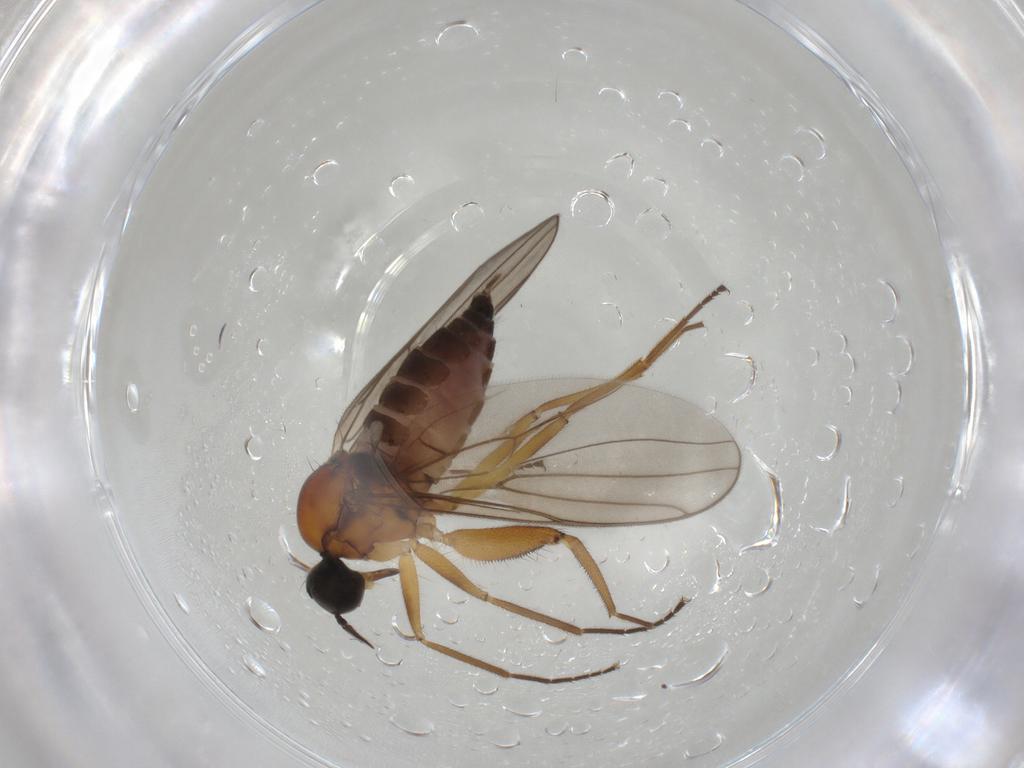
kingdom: Animalia
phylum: Arthropoda
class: Insecta
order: Diptera
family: Hybotidae
